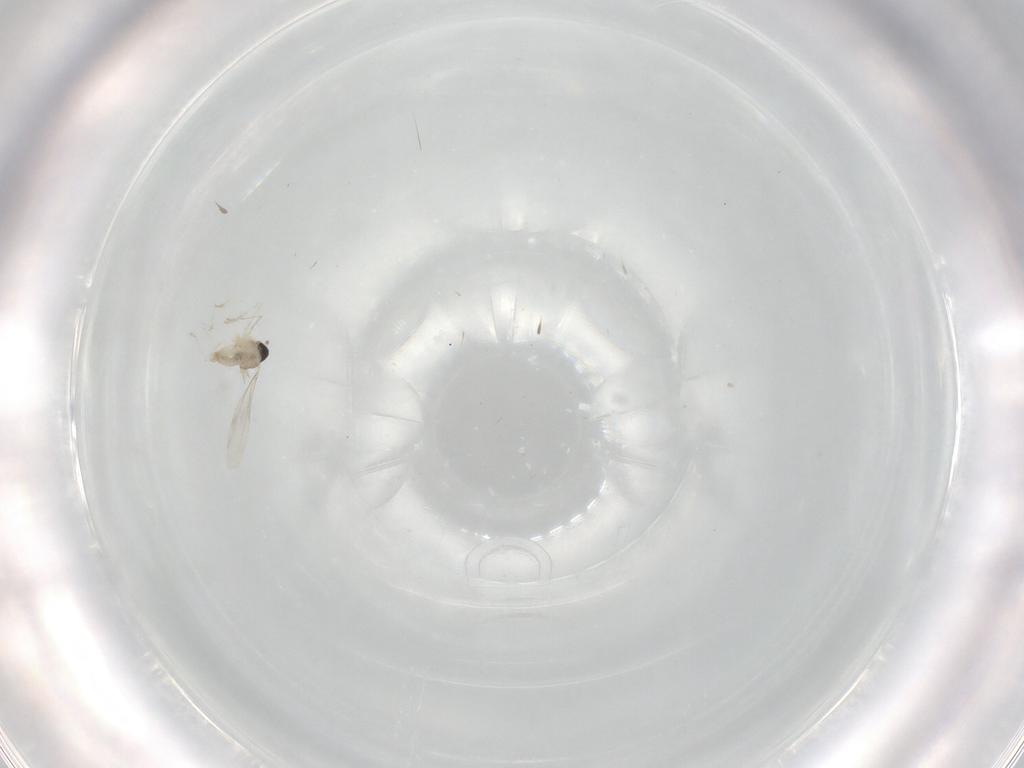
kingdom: Animalia
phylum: Arthropoda
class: Insecta
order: Diptera
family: Cecidomyiidae
